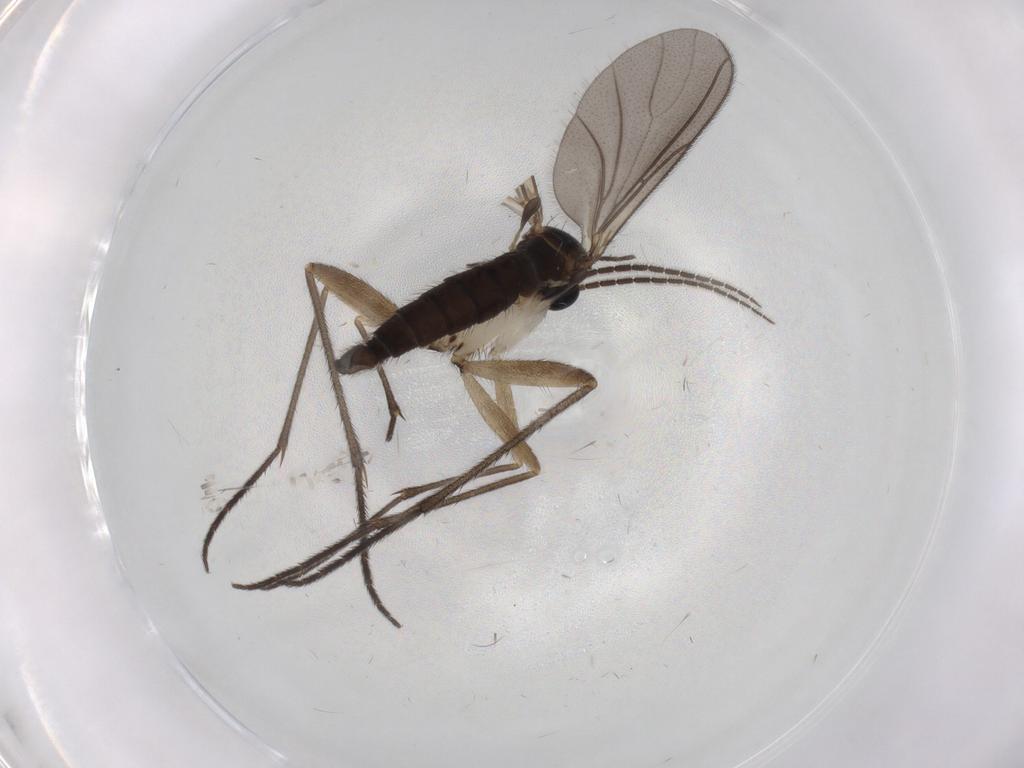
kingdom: Animalia
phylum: Arthropoda
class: Insecta
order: Diptera
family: Sciaridae
